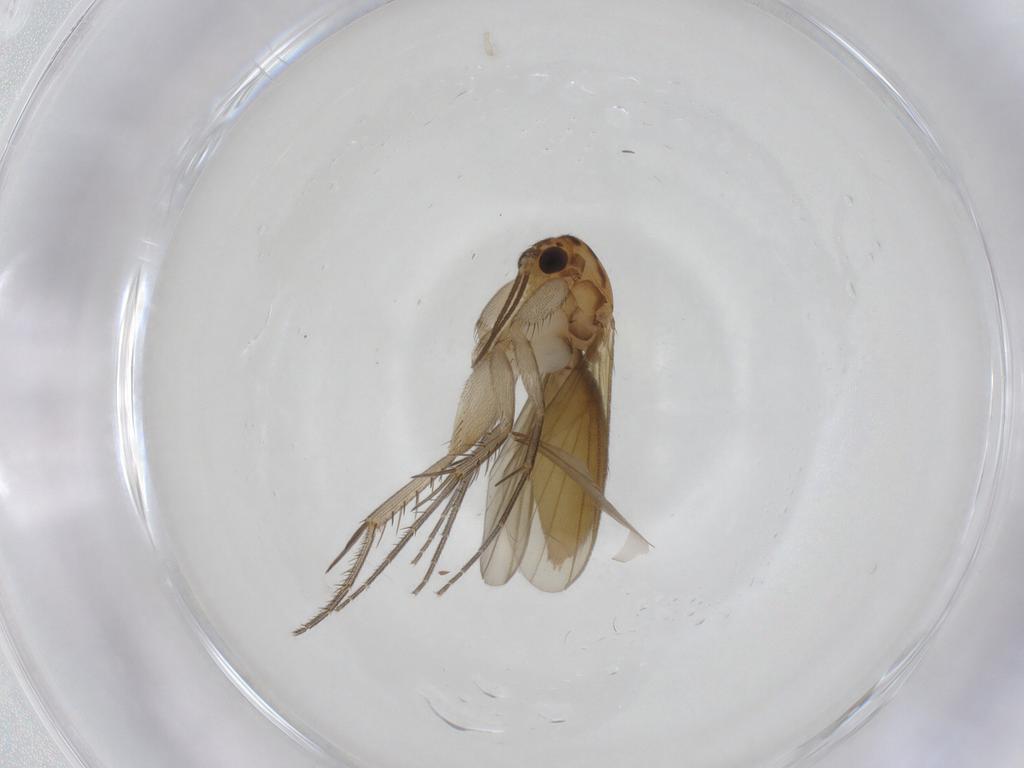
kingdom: Animalia
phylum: Arthropoda
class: Insecta
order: Diptera
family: Mycetophilidae
